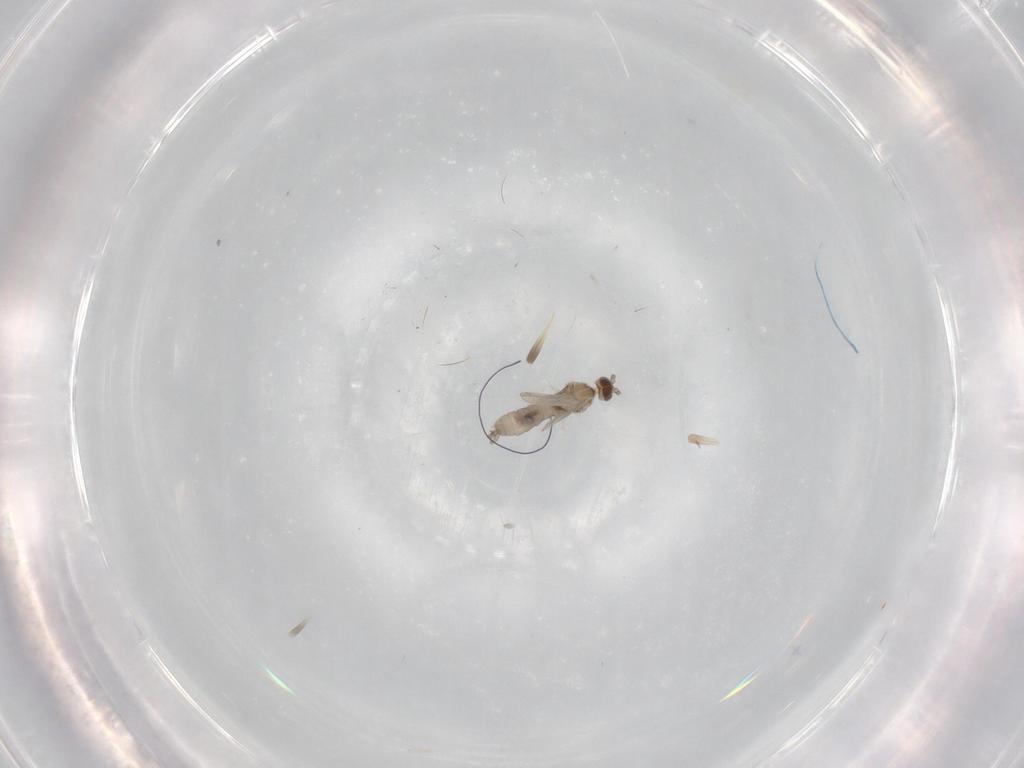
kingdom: Animalia
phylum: Arthropoda
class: Insecta
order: Diptera
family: Cecidomyiidae
